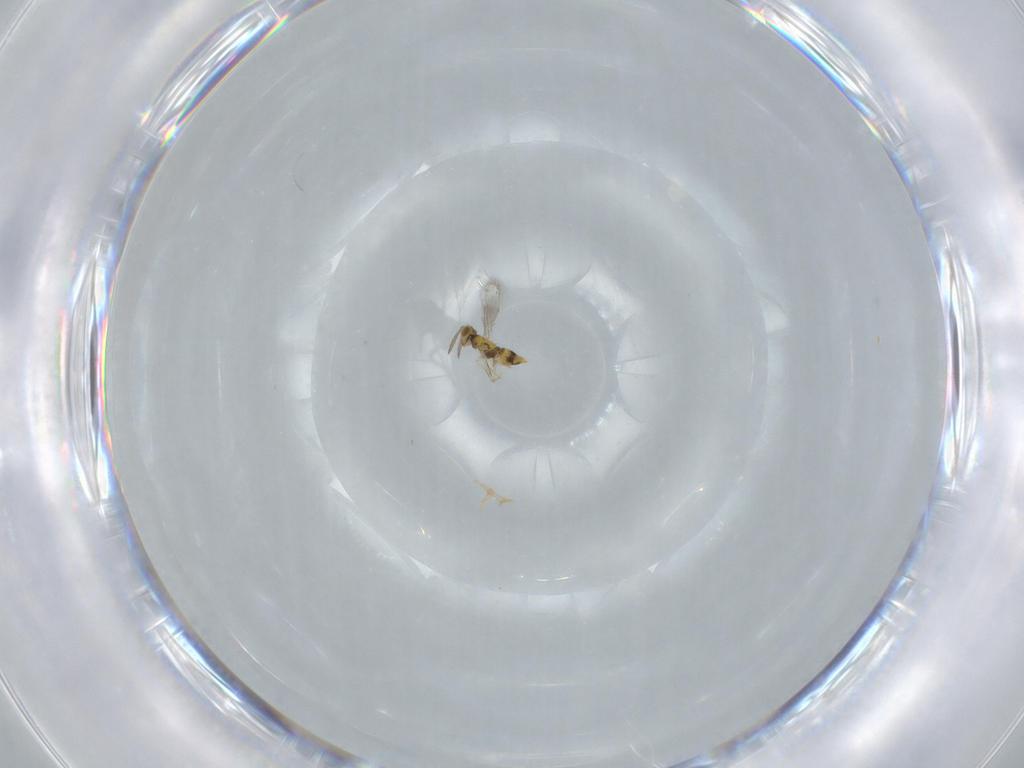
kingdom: Animalia
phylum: Arthropoda
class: Insecta
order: Hymenoptera
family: Aphelinidae
